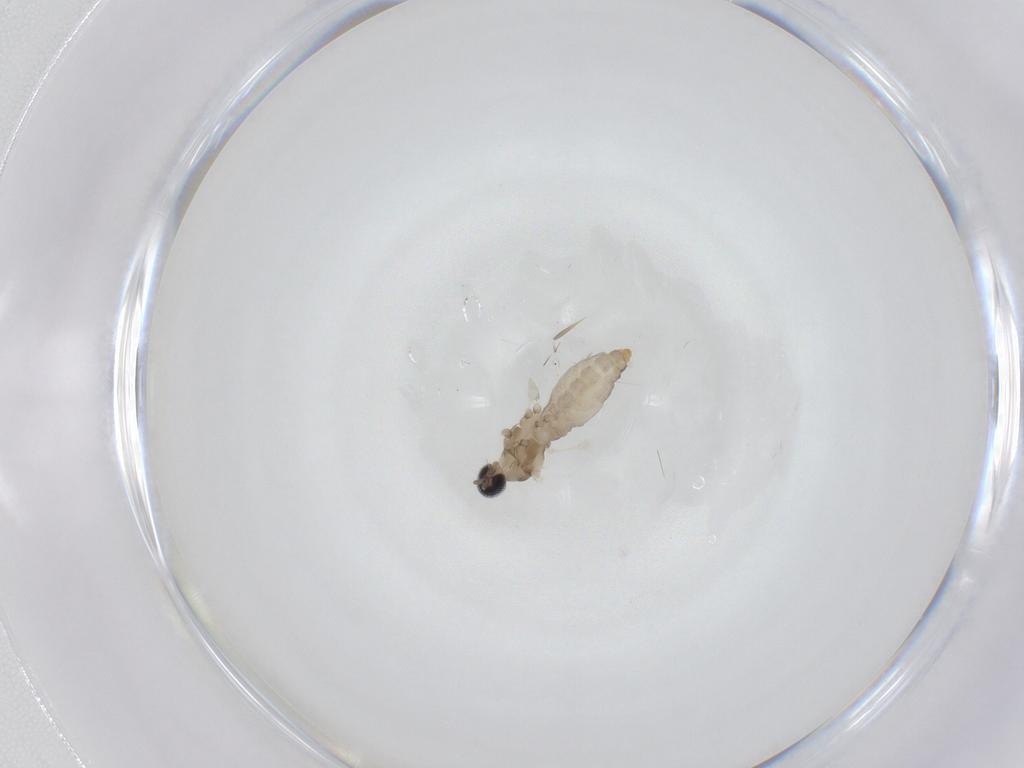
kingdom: Animalia
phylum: Arthropoda
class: Insecta
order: Diptera
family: Cecidomyiidae
